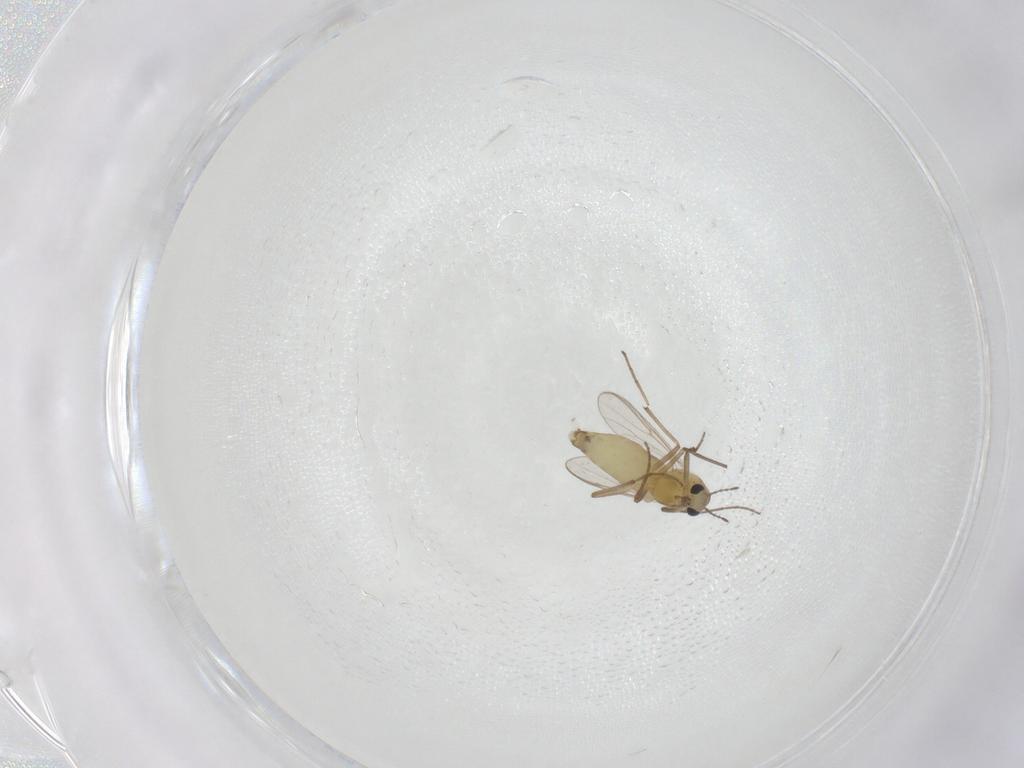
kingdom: Animalia
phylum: Arthropoda
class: Insecta
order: Diptera
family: Chironomidae
